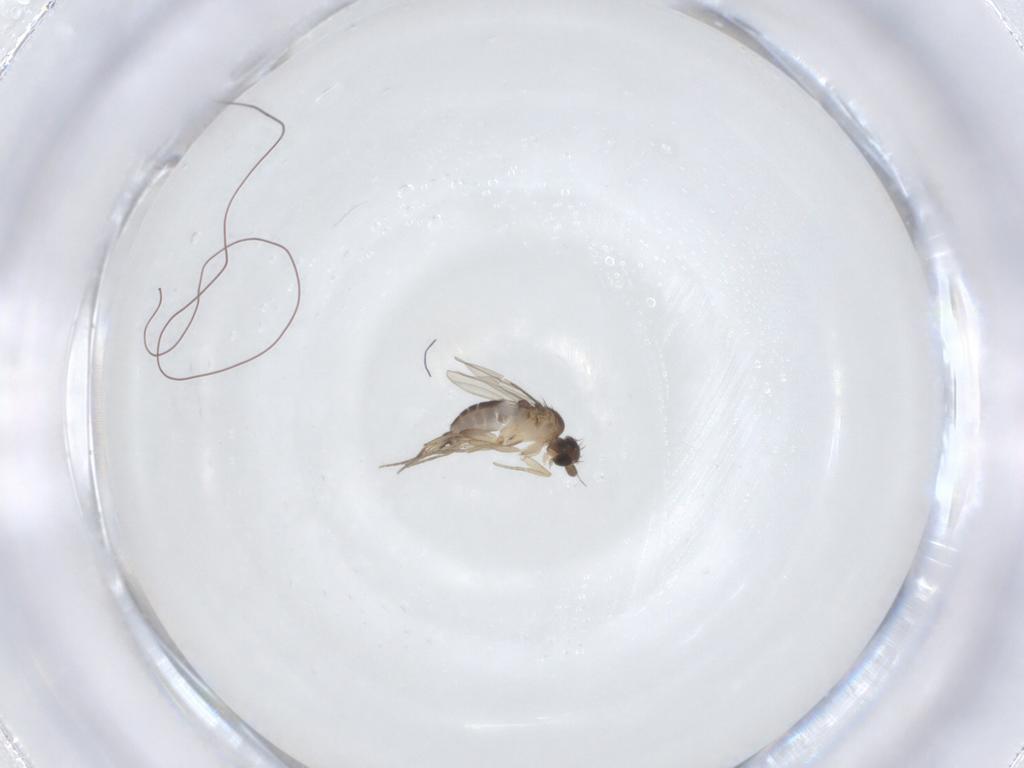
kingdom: Animalia
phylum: Arthropoda
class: Insecta
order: Diptera
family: Phoridae
